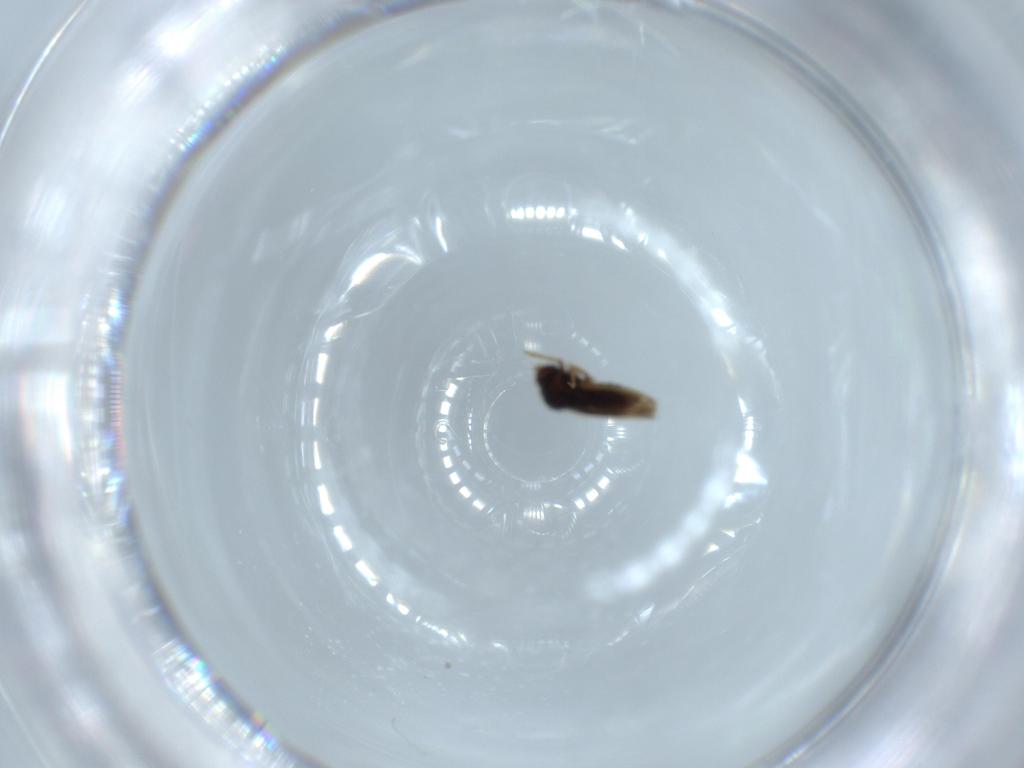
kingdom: Animalia
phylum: Arthropoda
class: Insecta
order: Hemiptera
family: Schizopteridae
